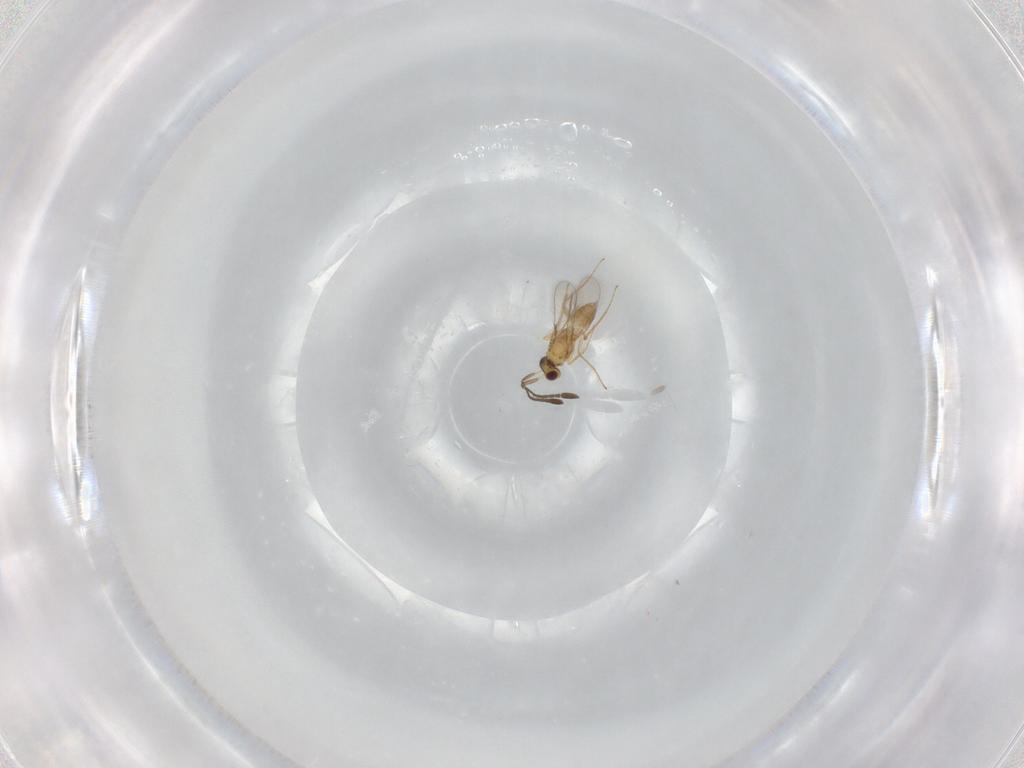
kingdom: Animalia
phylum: Arthropoda
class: Insecta
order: Hymenoptera
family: Mymaridae
